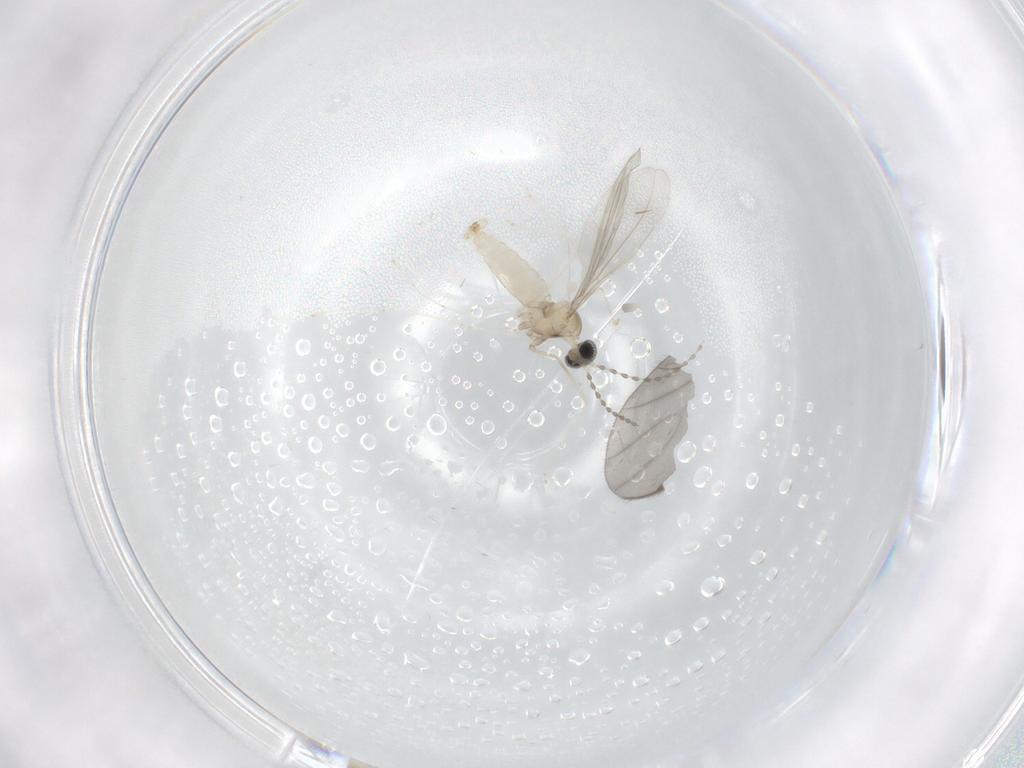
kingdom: Animalia
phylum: Arthropoda
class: Insecta
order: Diptera
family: Cecidomyiidae
